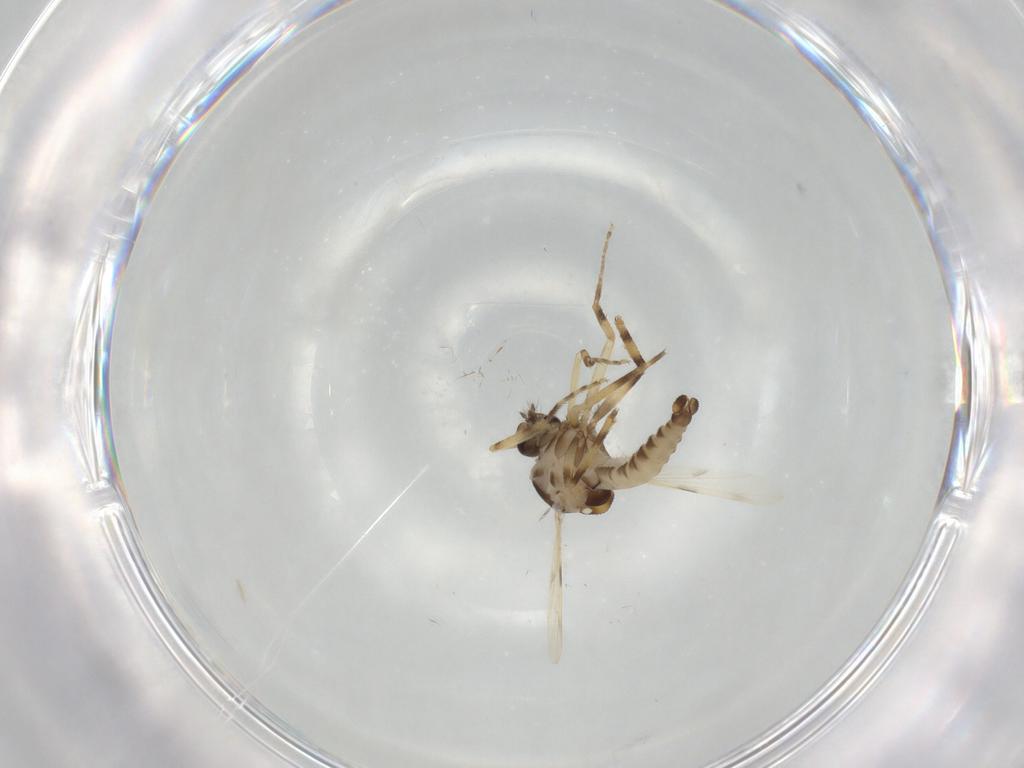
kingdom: Animalia
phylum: Arthropoda
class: Insecta
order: Diptera
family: Ceratopogonidae
